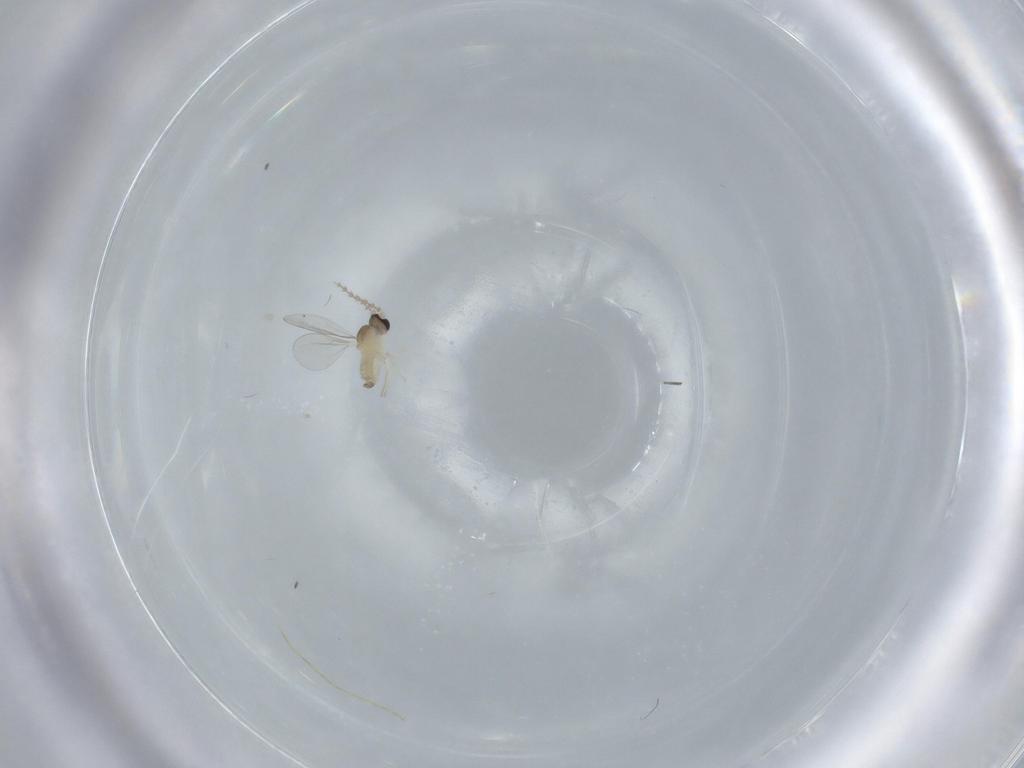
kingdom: Animalia
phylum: Arthropoda
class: Insecta
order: Diptera
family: Cecidomyiidae
